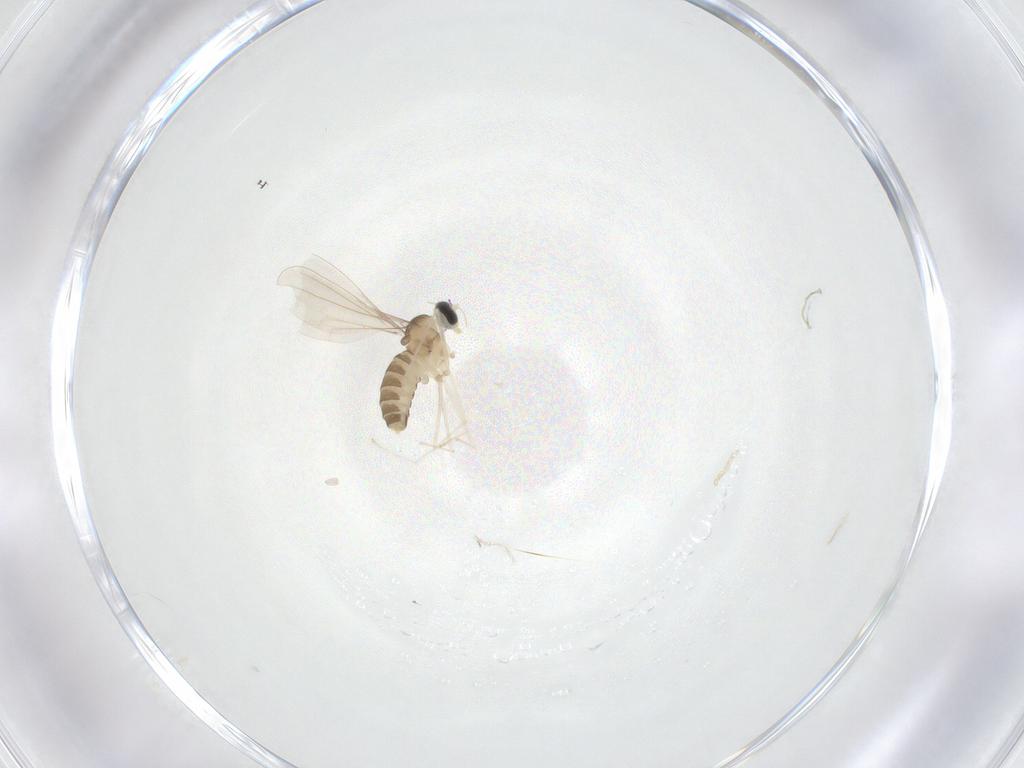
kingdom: Animalia
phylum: Arthropoda
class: Insecta
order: Diptera
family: Cecidomyiidae
